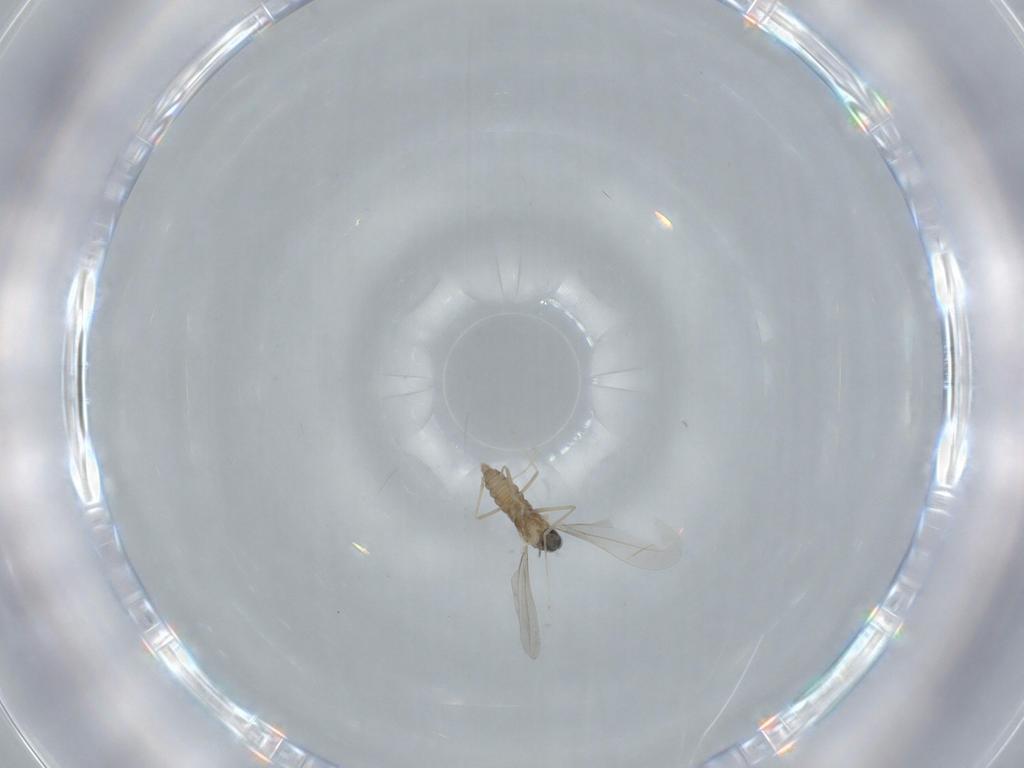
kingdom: Animalia
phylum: Arthropoda
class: Insecta
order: Diptera
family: Cecidomyiidae
